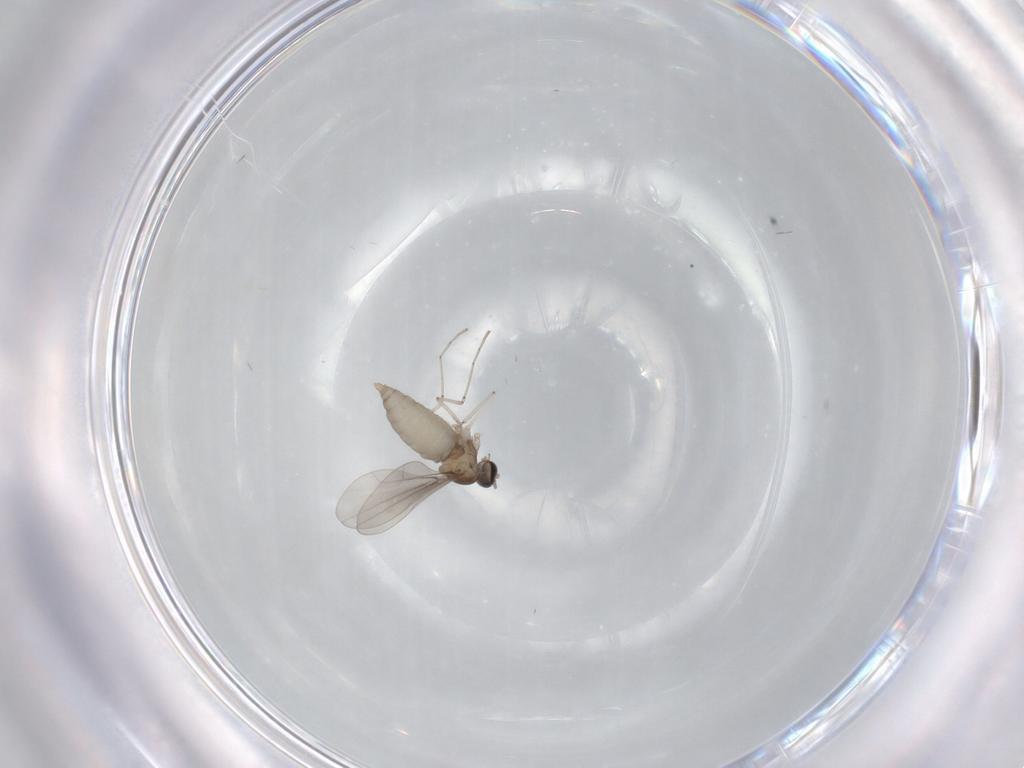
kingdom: Animalia
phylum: Arthropoda
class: Insecta
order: Diptera
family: Cecidomyiidae
